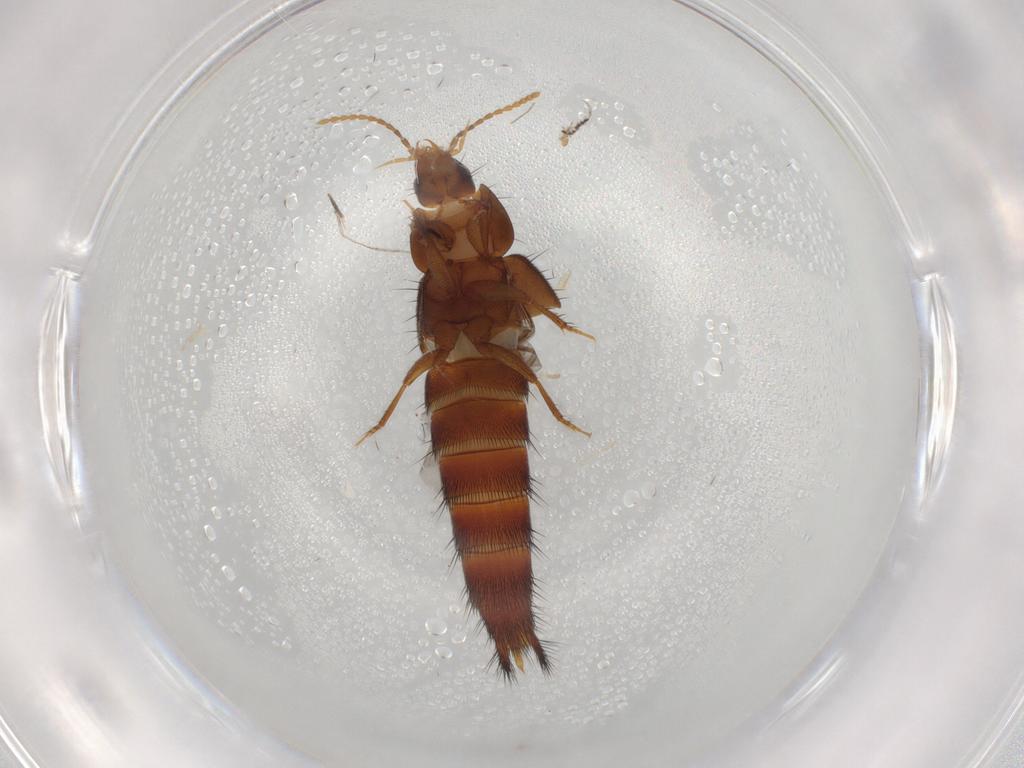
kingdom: Animalia
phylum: Arthropoda
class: Insecta
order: Coleoptera
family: Staphylinidae
